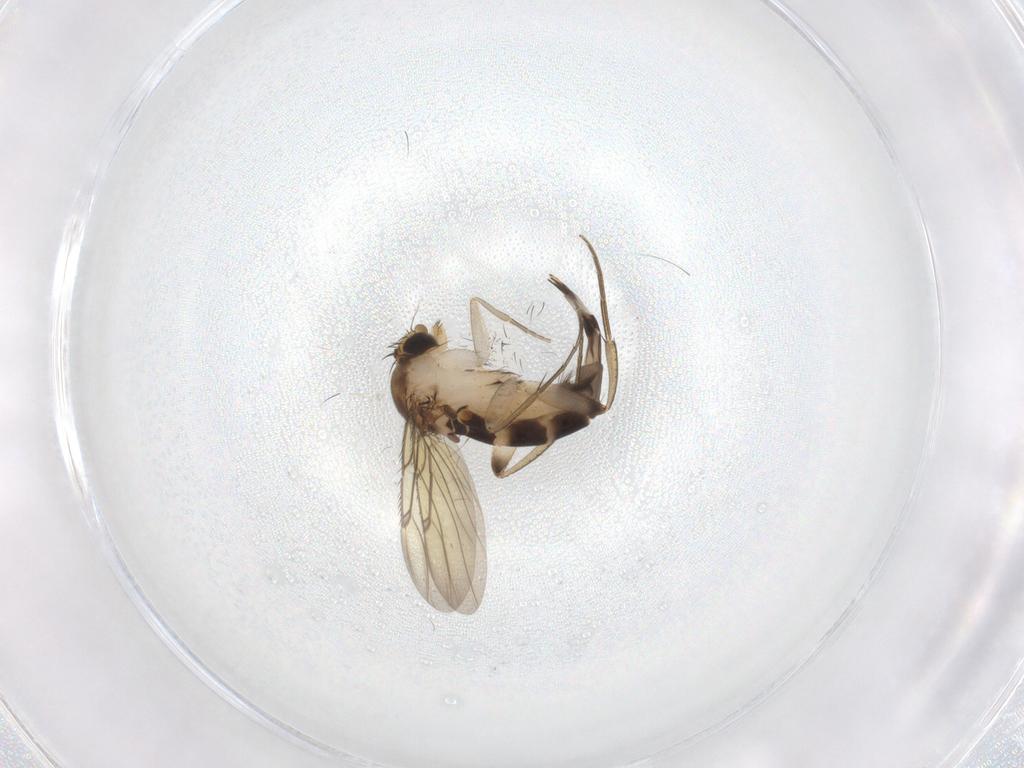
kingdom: Animalia
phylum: Arthropoda
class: Insecta
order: Diptera
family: Phoridae
